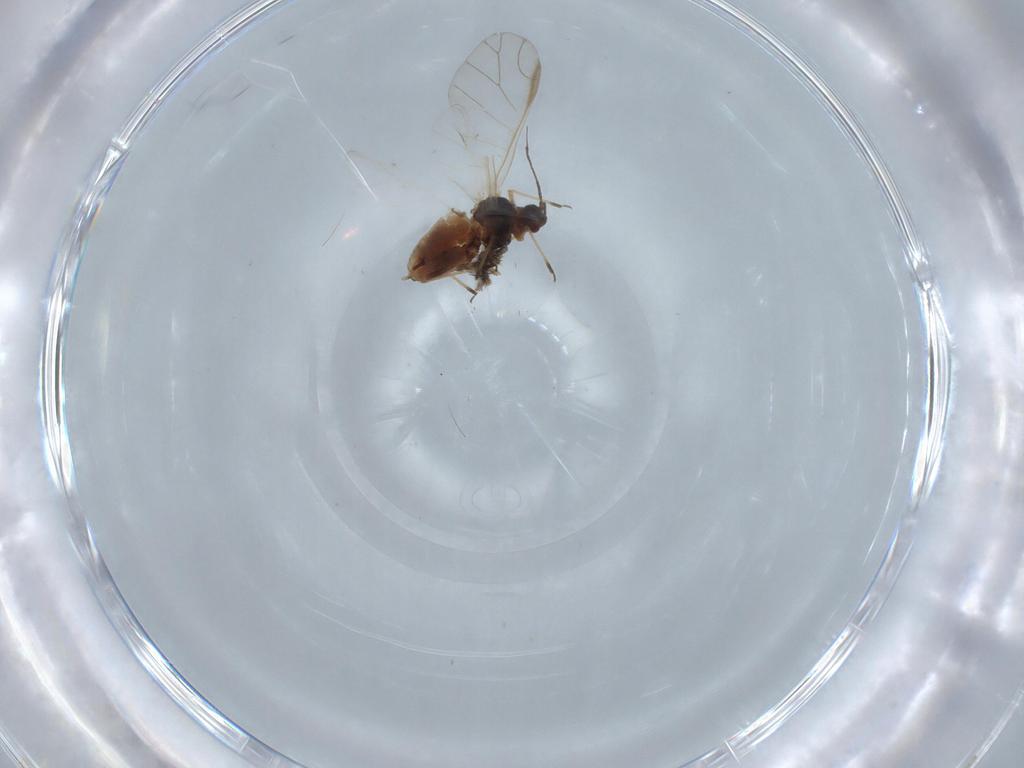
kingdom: Animalia
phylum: Arthropoda
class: Insecta
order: Hemiptera
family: Aphididae
